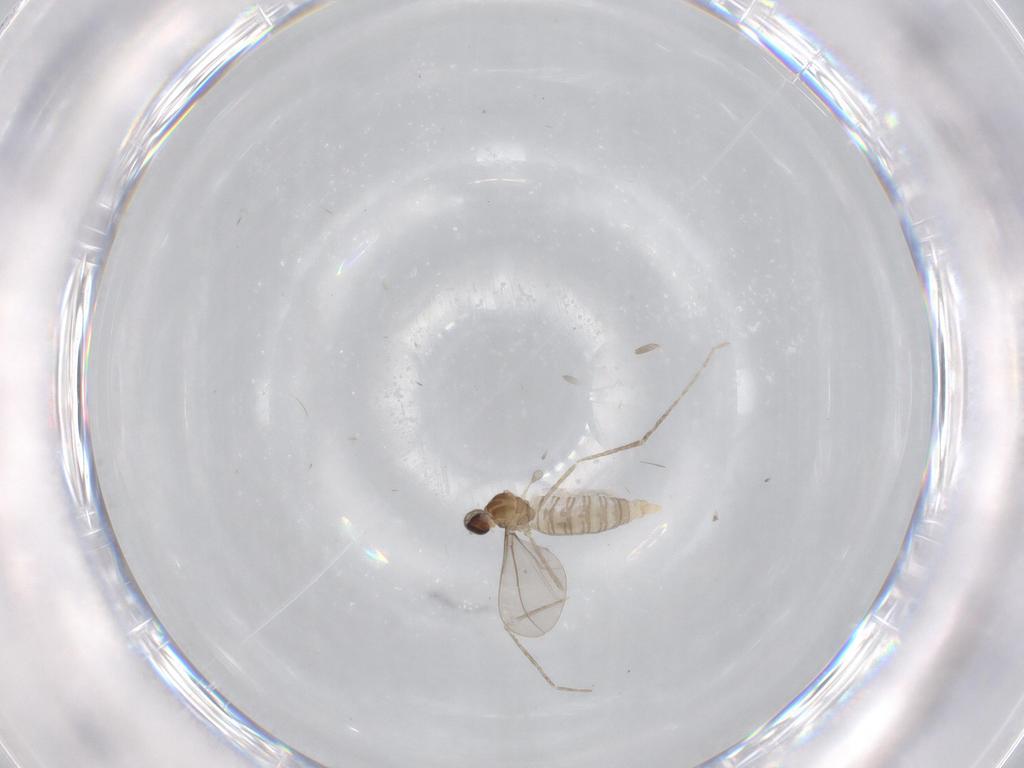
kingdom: Animalia
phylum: Arthropoda
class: Insecta
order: Diptera
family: Cecidomyiidae
